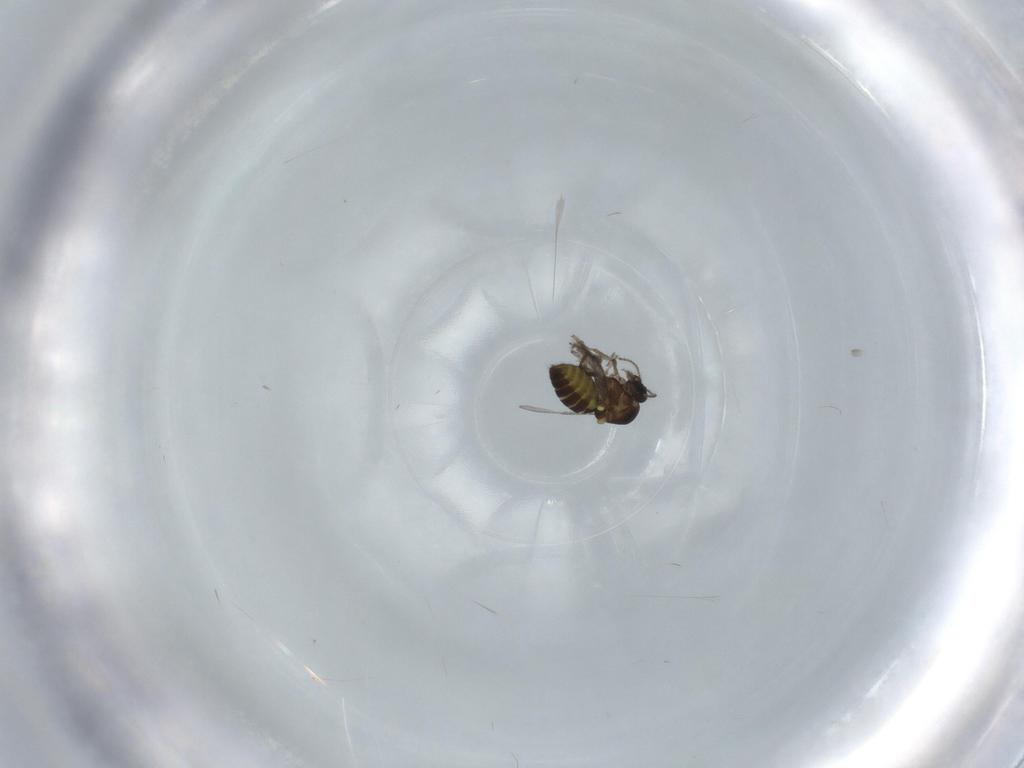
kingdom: Animalia
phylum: Arthropoda
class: Insecta
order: Diptera
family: Ceratopogonidae
